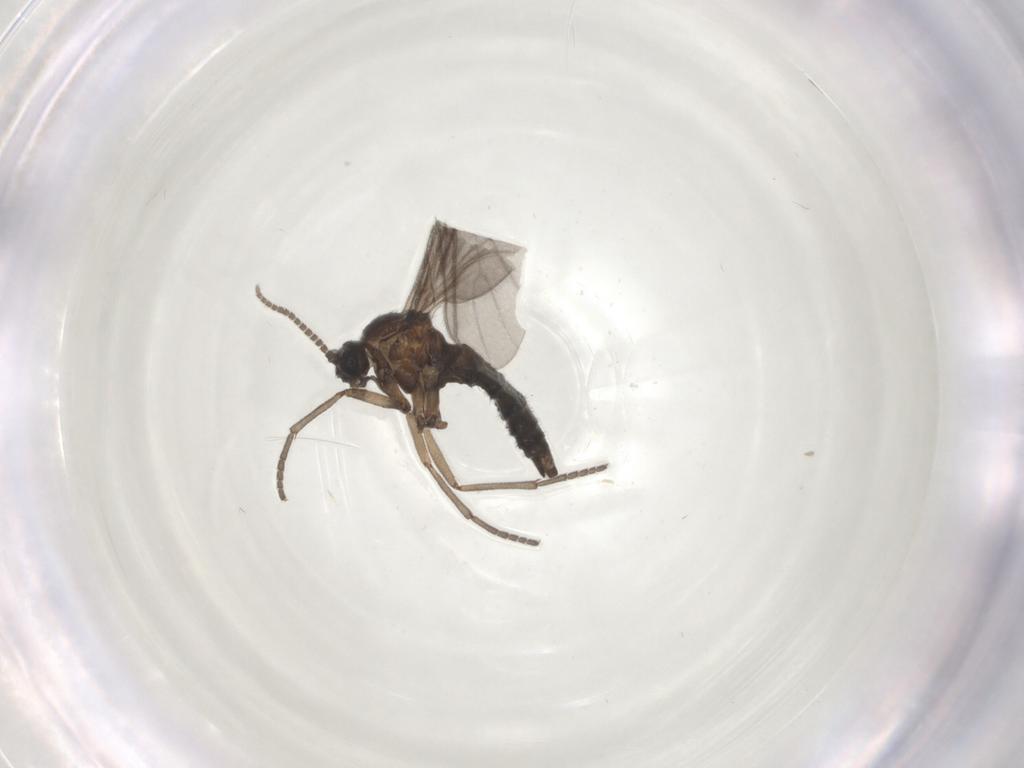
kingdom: Animalia
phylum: Arthropoda
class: Insecta
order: Diptera
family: Sciaridae
